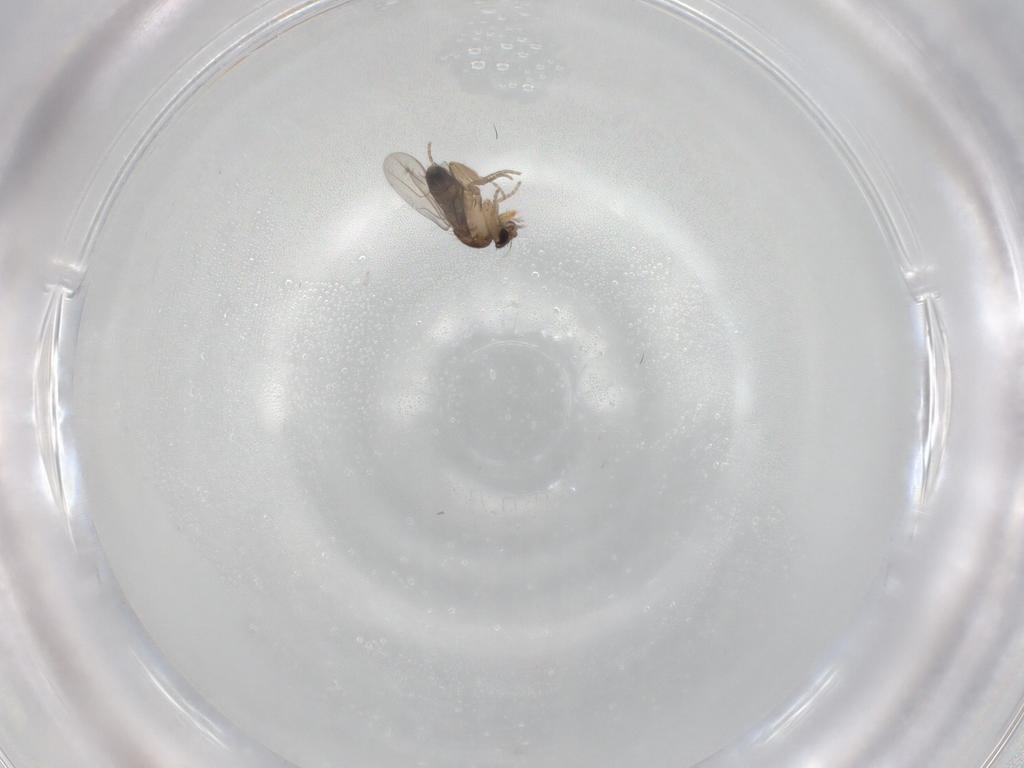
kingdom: Animalia
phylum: Arthropoda
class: Insecta
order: Diptera
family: Phoridae
